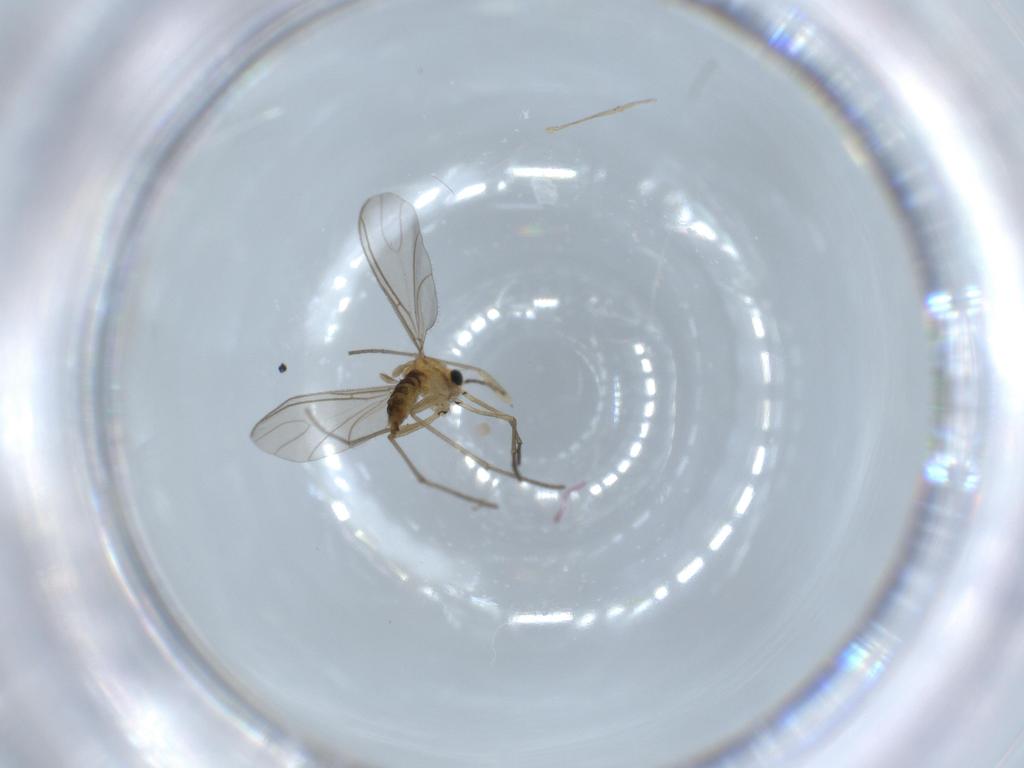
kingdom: Animalia
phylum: Arthropoda
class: Insecta
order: Diptera
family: Sciaridae
